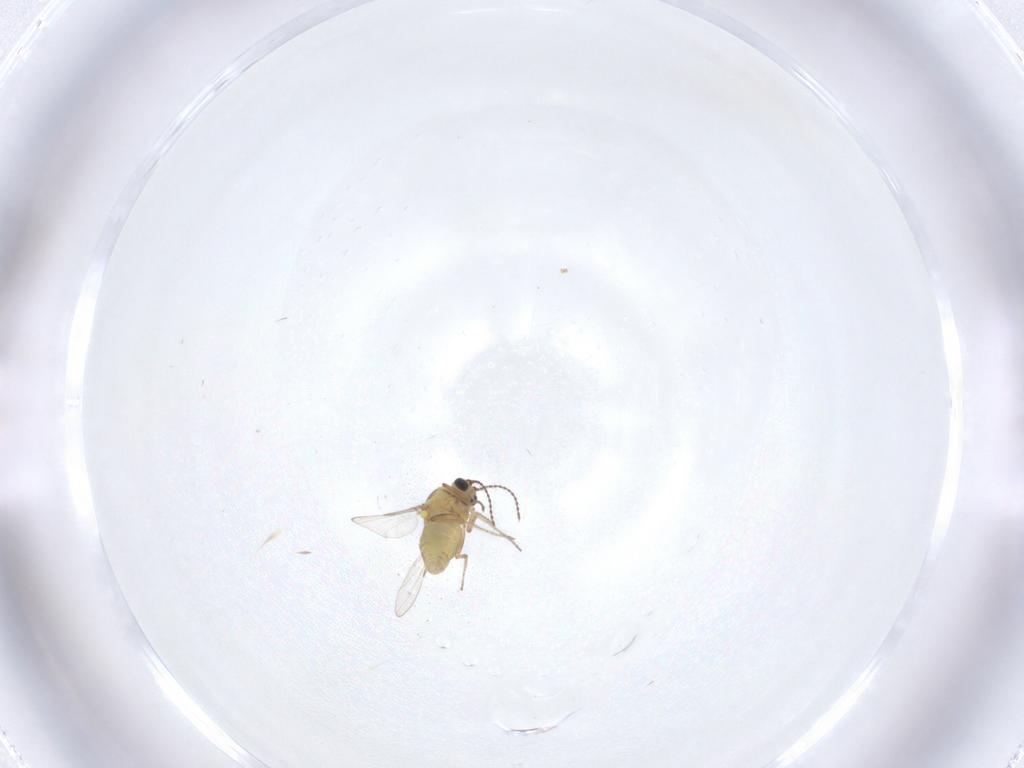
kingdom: Animalia
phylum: Arthropoda
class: Insecta
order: Diptera
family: Ceratopogonidae
